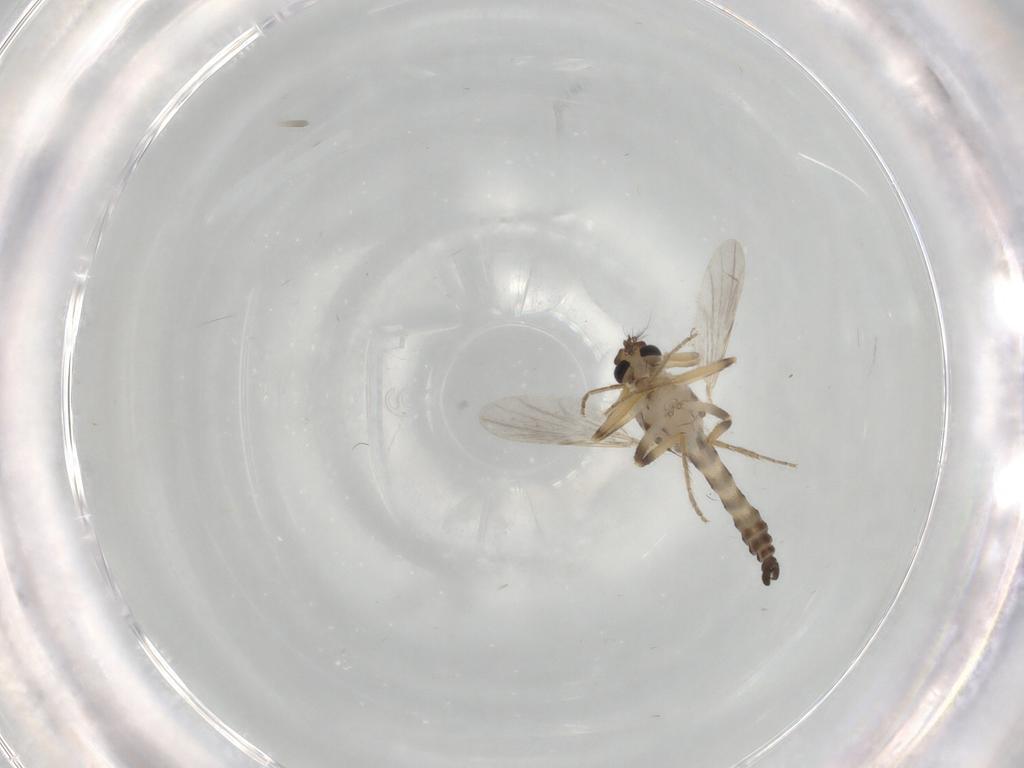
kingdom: Animalia
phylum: Arthropoda
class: Insecta
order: Diptera
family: Ceratopogonidae
